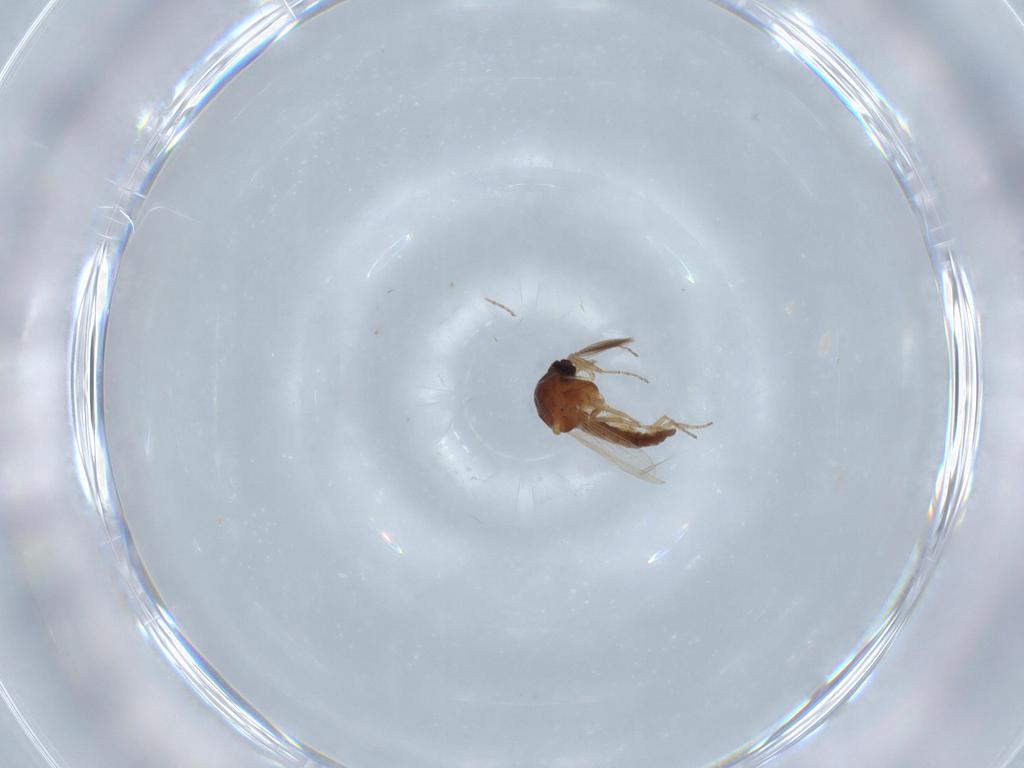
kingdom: Animalia
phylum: Arthropoda
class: Insecta
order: Diptera
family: Ceratopogonidae
